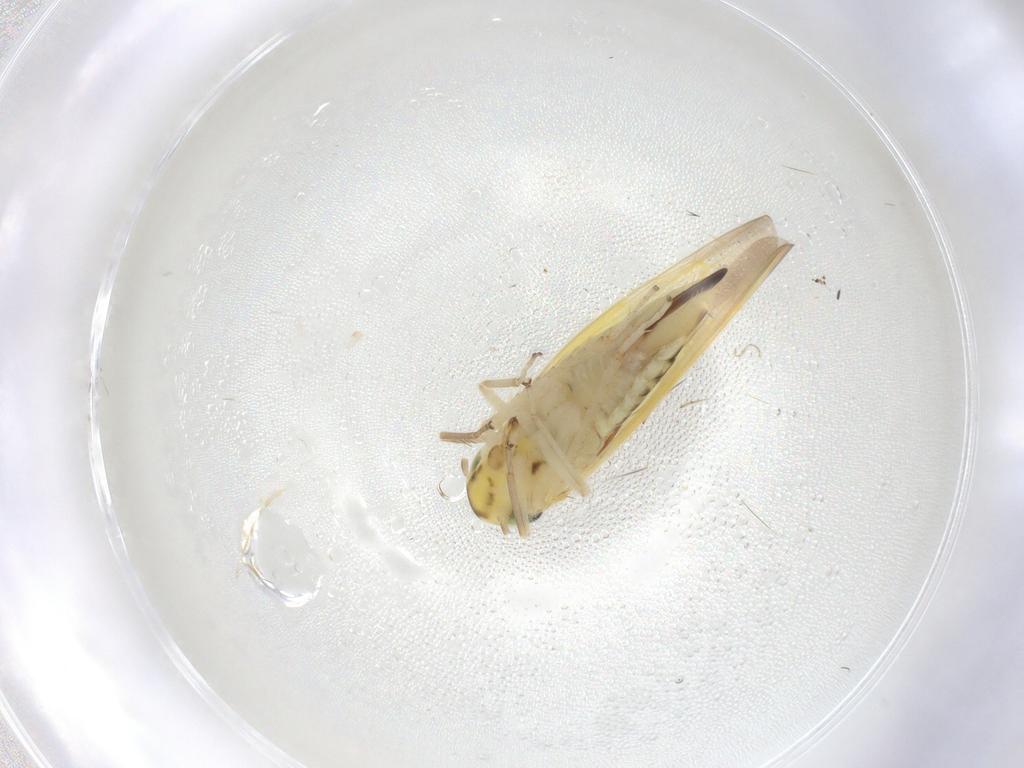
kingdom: Animalia
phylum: Arthropoda
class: Insecta
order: Hemiptera
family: Cicadellidae
